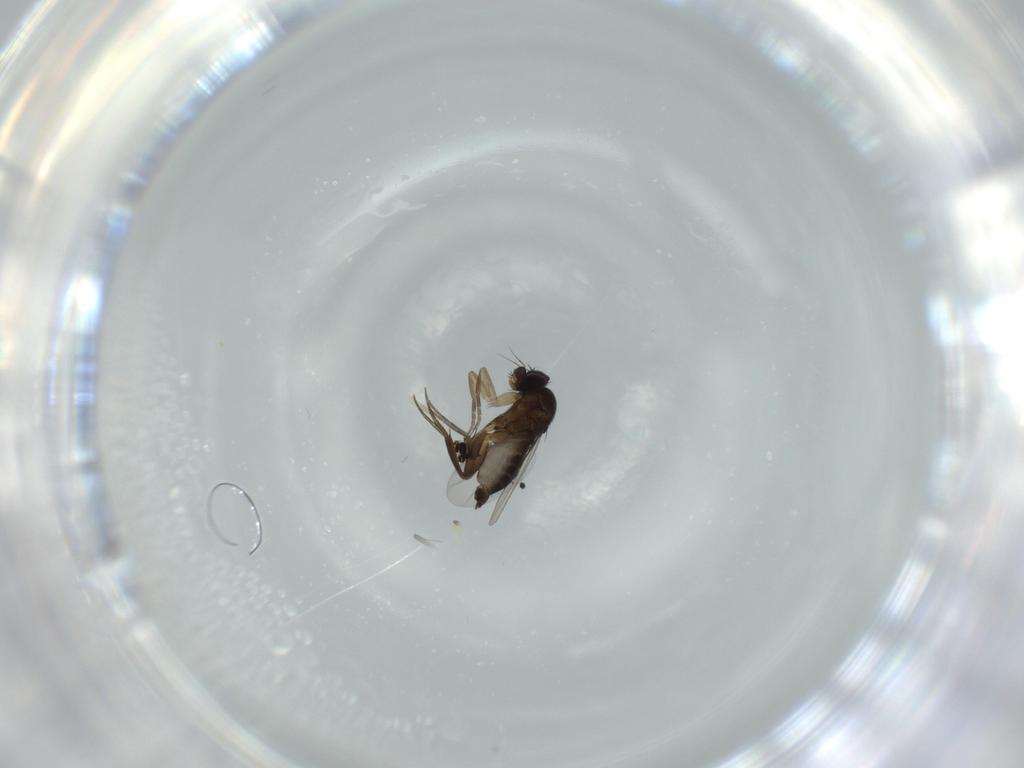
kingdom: Animalia
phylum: Arthropoda
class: Insecta
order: Diptera
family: Phoridae
